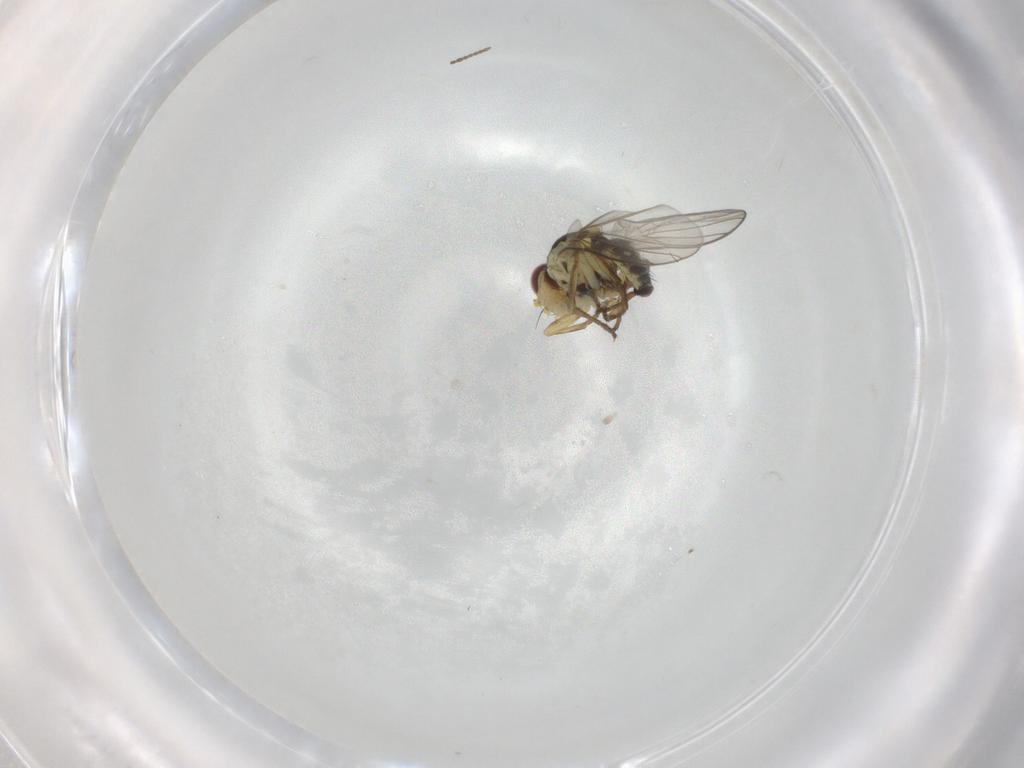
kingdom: Animalia
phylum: Arthropoda
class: Insecta
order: Diptera
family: Agromyzidae
